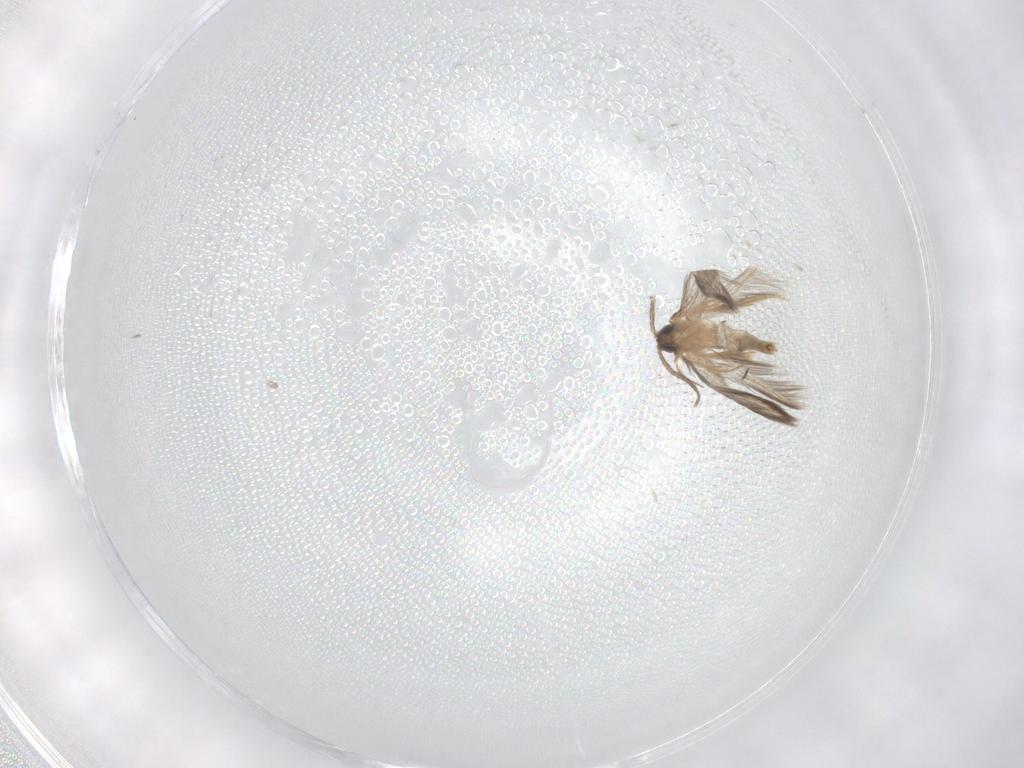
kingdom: Animalia
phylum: Arthropoda
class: Insecta
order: Trichoptera
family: Hydroptilidae
